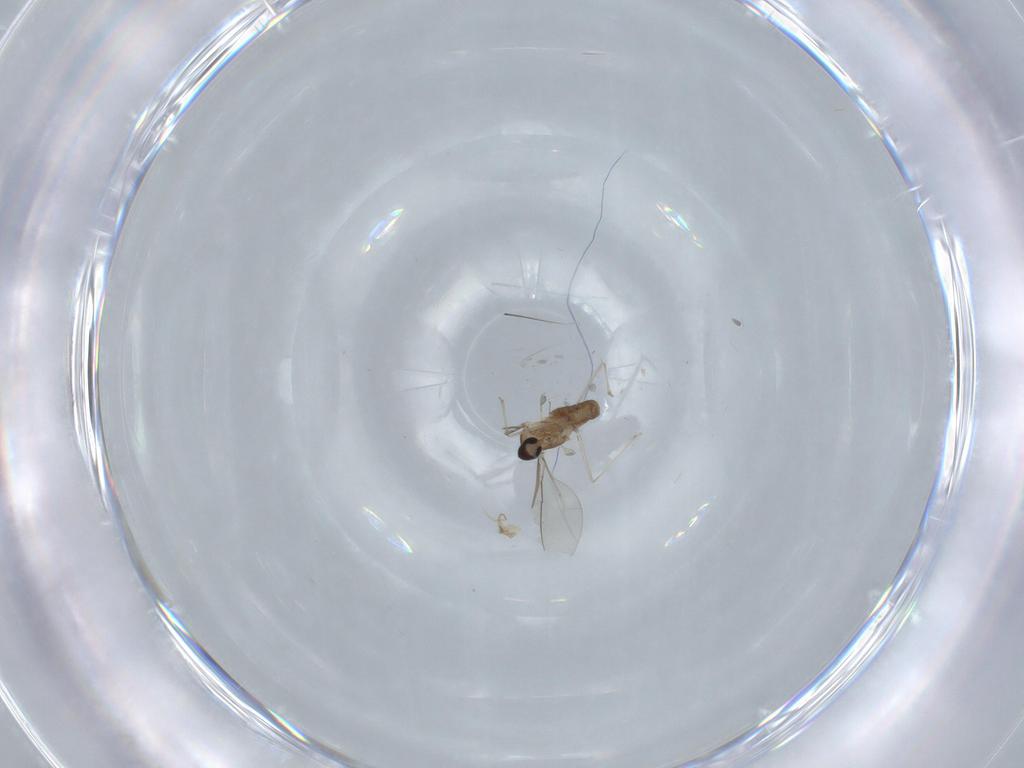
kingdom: Animalia
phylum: Arthropoda
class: Insecta
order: Diptera
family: Sphaeroceridae
